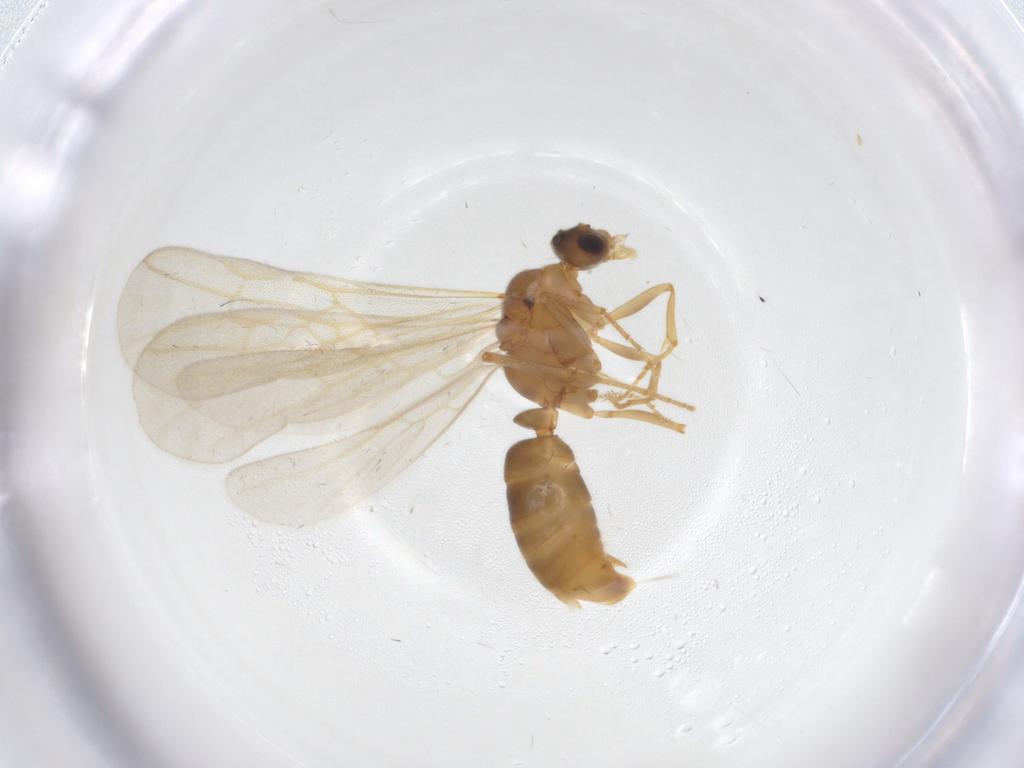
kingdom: Animalia
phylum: Arthropoda
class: Insecta
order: Hymenoptera
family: Formicidae
